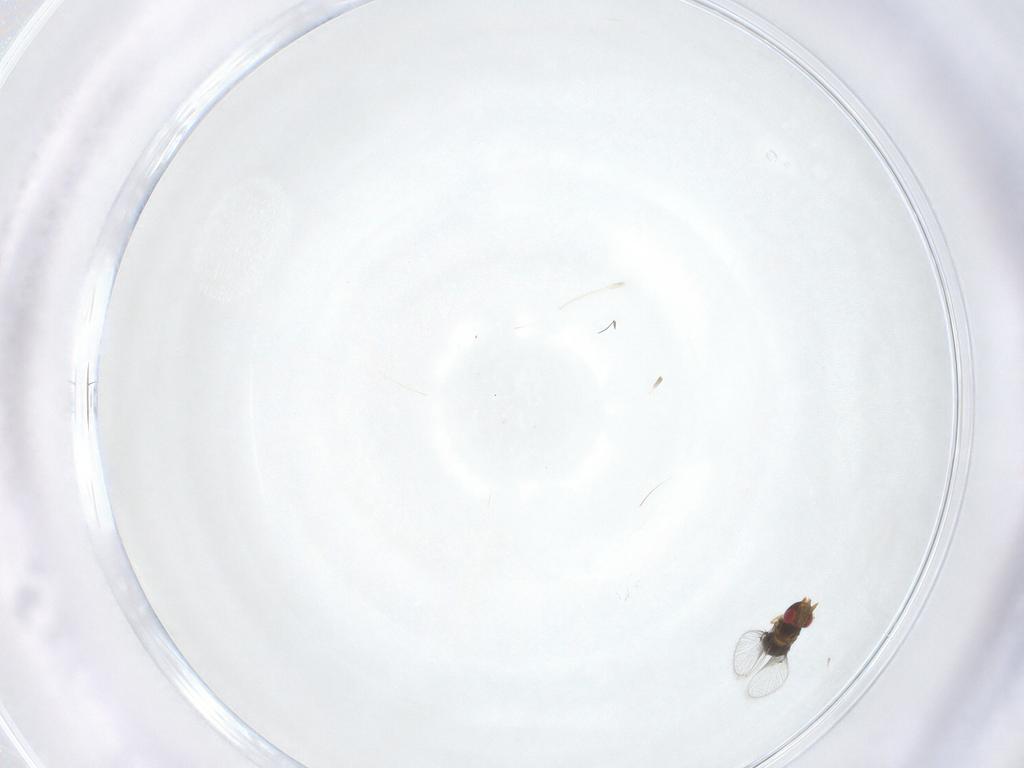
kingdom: Animalia
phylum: Arthropoda
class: Insecta
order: Hymenoptera
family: Trichogrammatidae
